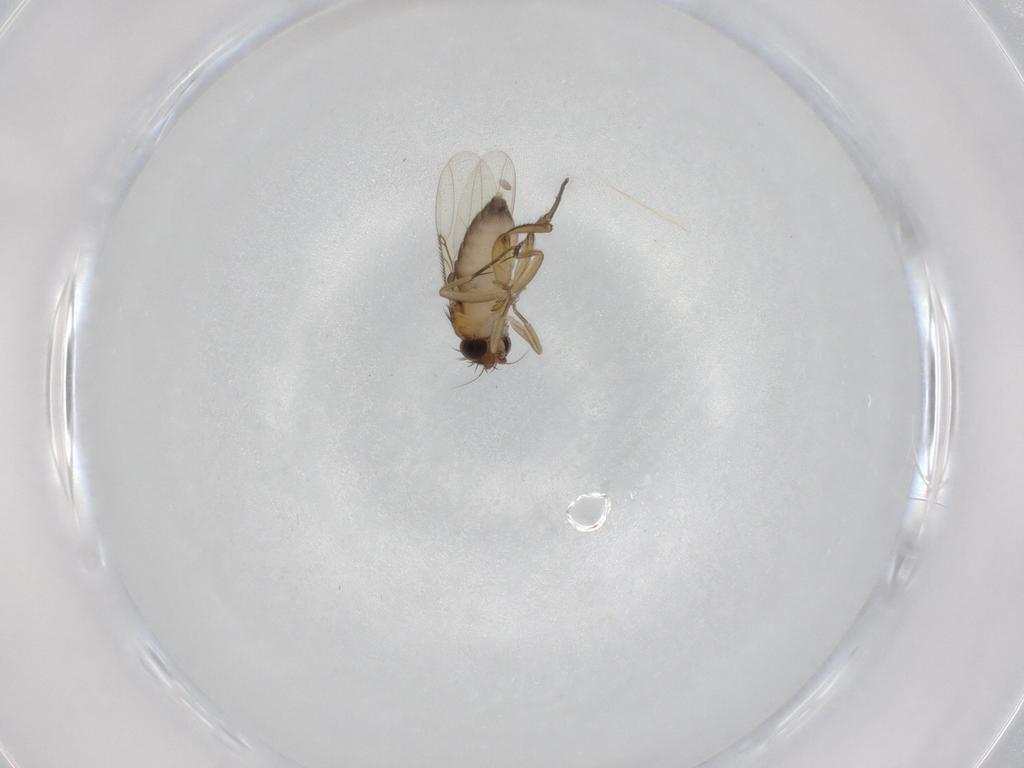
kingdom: Animalia
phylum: Arthropoda
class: Insecta
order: Diptera
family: Phoridae
